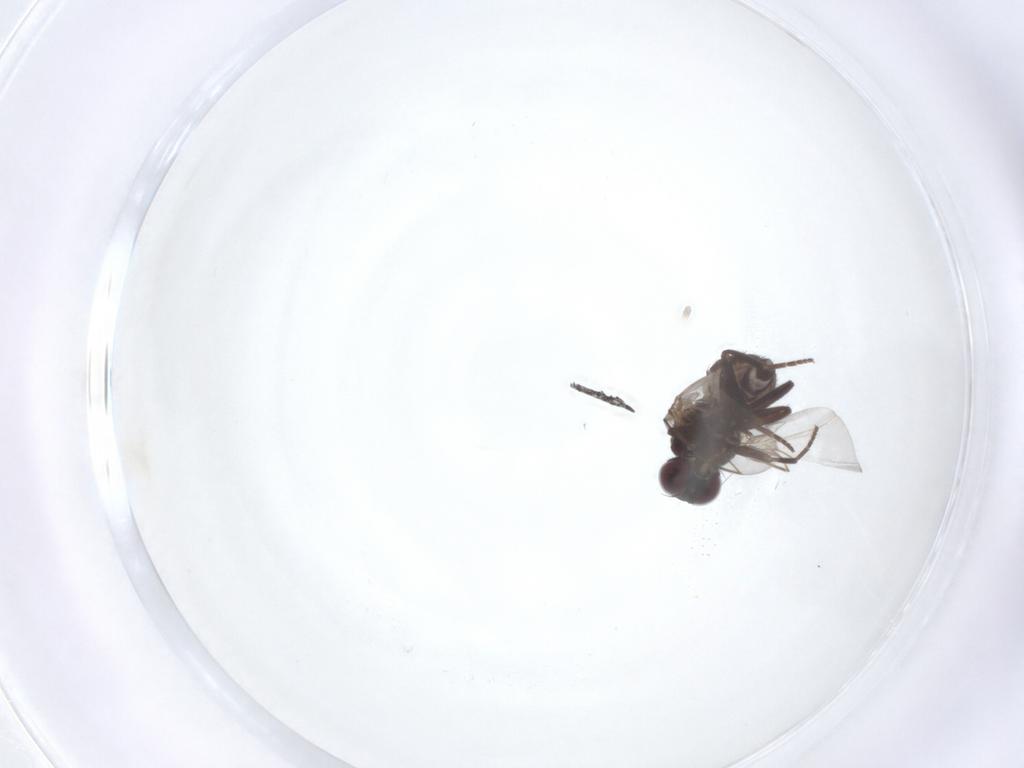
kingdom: Animalia
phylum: Arthropoda
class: Insecta
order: Diptera
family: Agromyzidae
